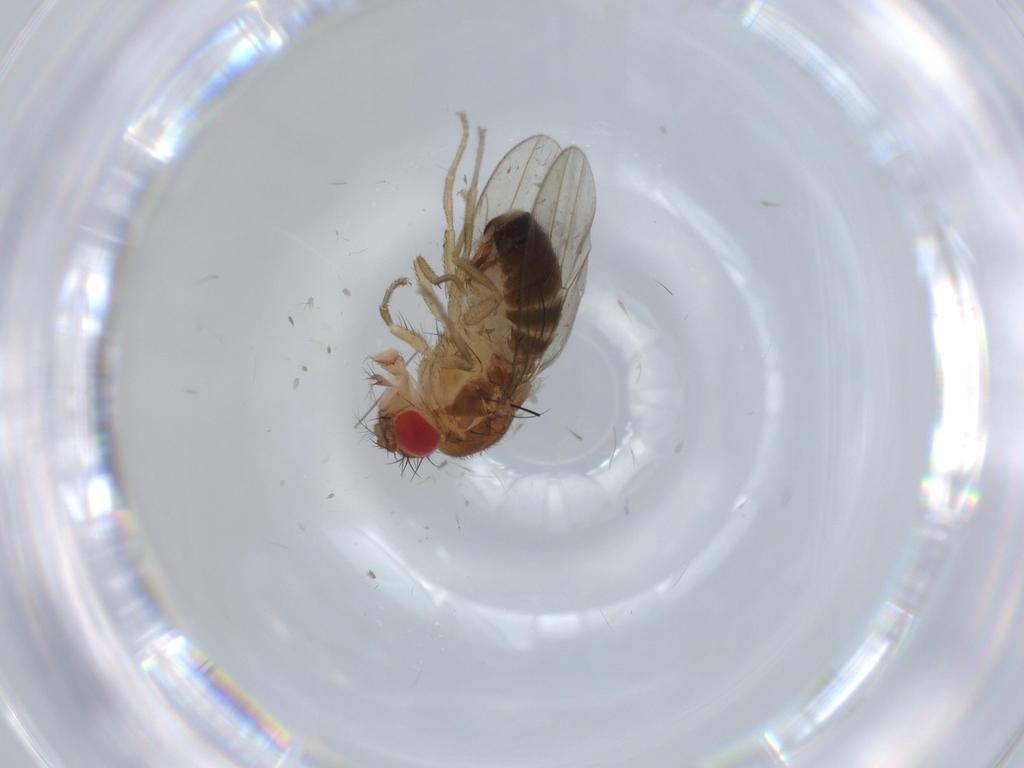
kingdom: Animalia
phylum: Arthropoda
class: Insecta
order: Diptera
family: Drosophilidae
